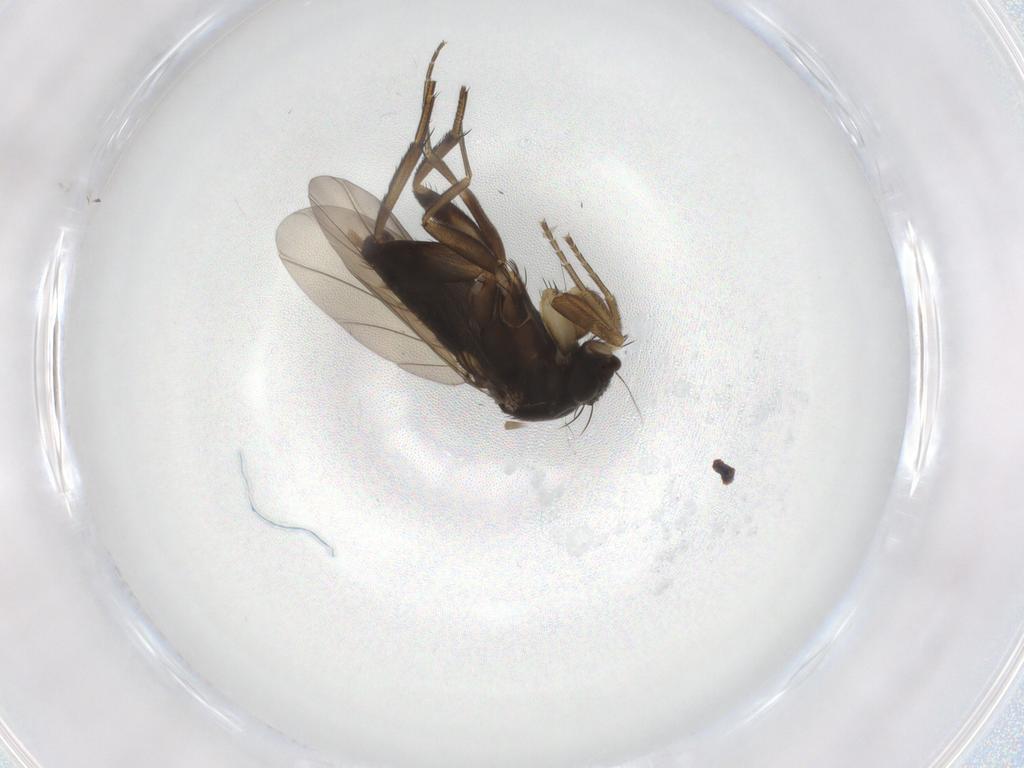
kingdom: Animalia
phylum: Arthropoda
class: Insecta
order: Diptera
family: Phoridae
